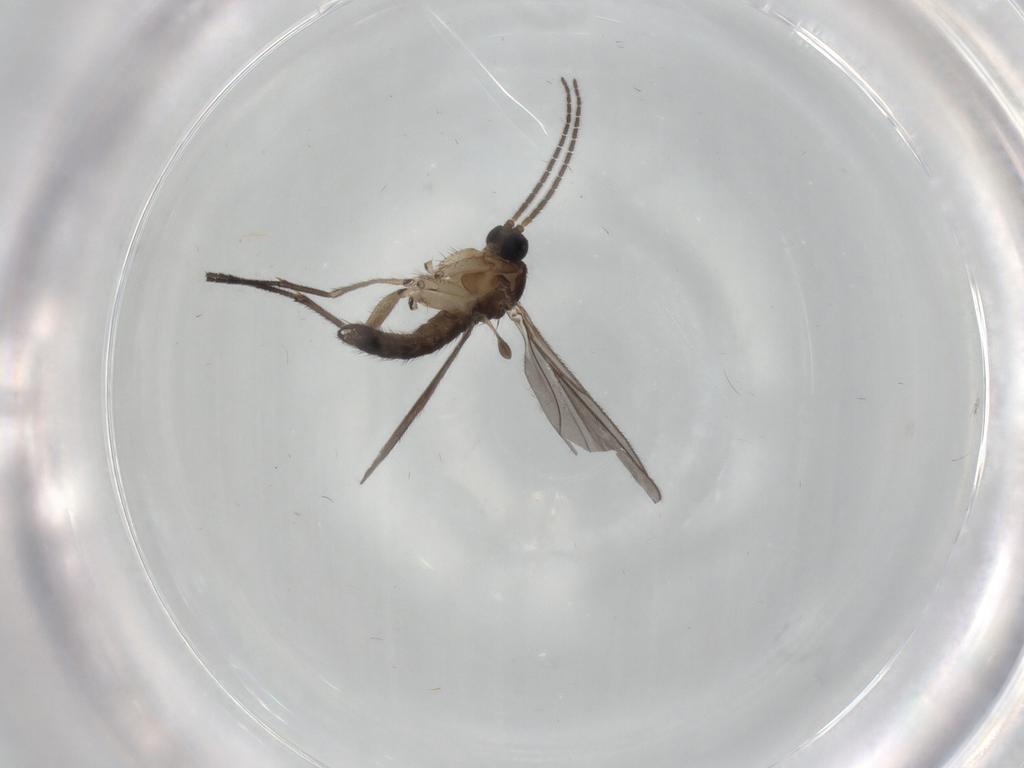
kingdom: Animalia
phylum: Arthropoda
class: Insecta
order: Diptera
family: Sciaridae
